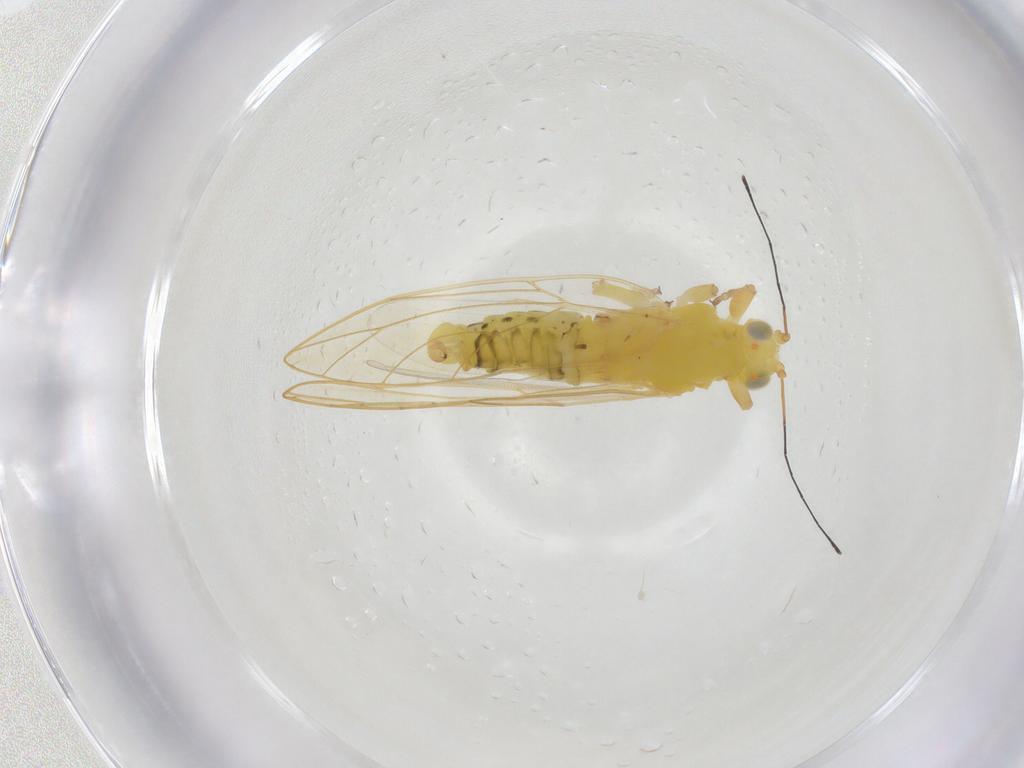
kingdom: Animalia
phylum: Arthropoda
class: Insecta
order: Hemiptera
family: Triozidae
